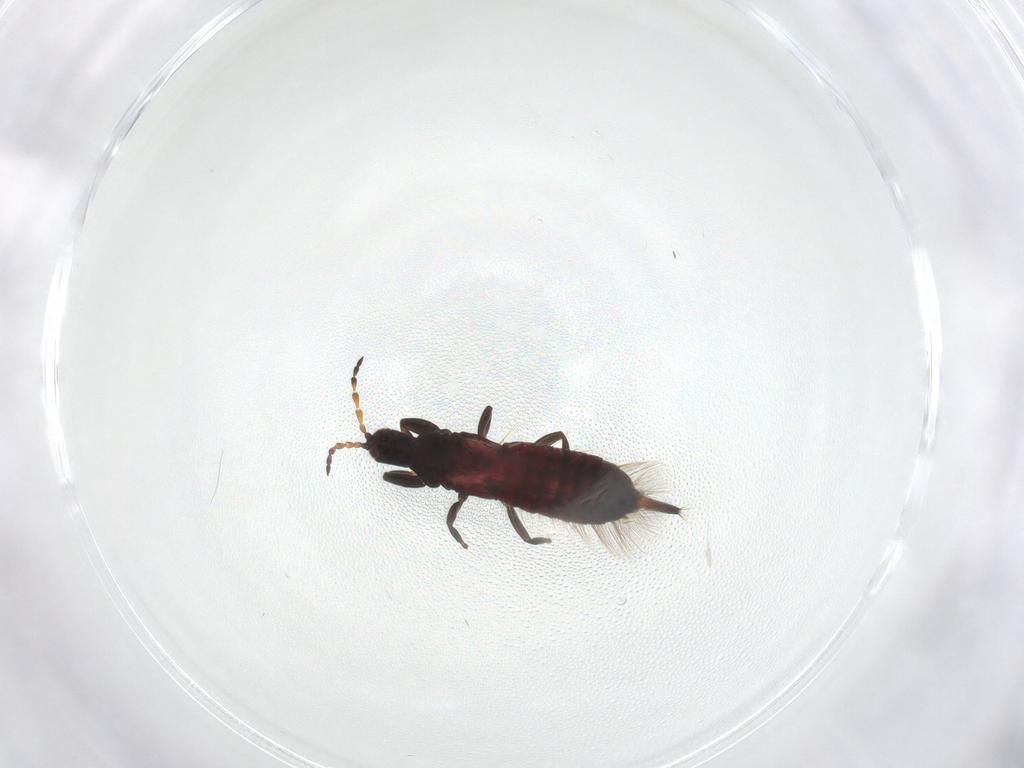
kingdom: Animalia
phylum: Arthropoda
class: Insecta
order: Thysanoptera
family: Phlaeothripidae
